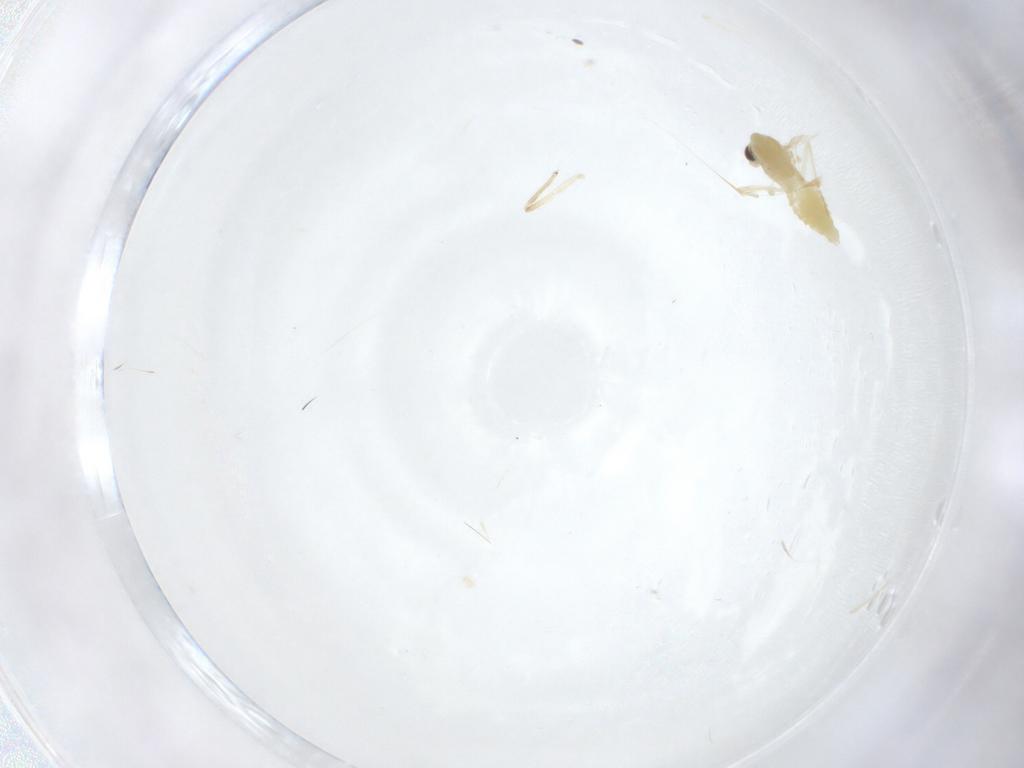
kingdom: Animalia
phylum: Arthropoda
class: Insecta
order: Diptera
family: Chironomidae
